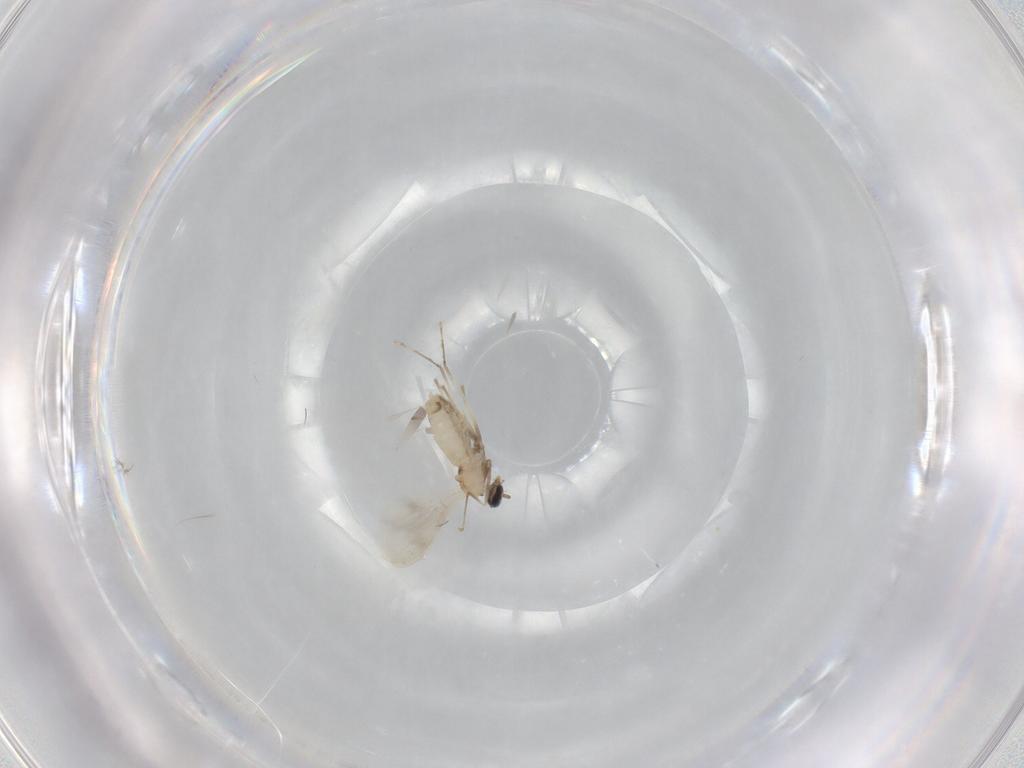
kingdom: Animalia
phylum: Arthropoda
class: Insecta
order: Diptera
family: Cecidomyiidae
